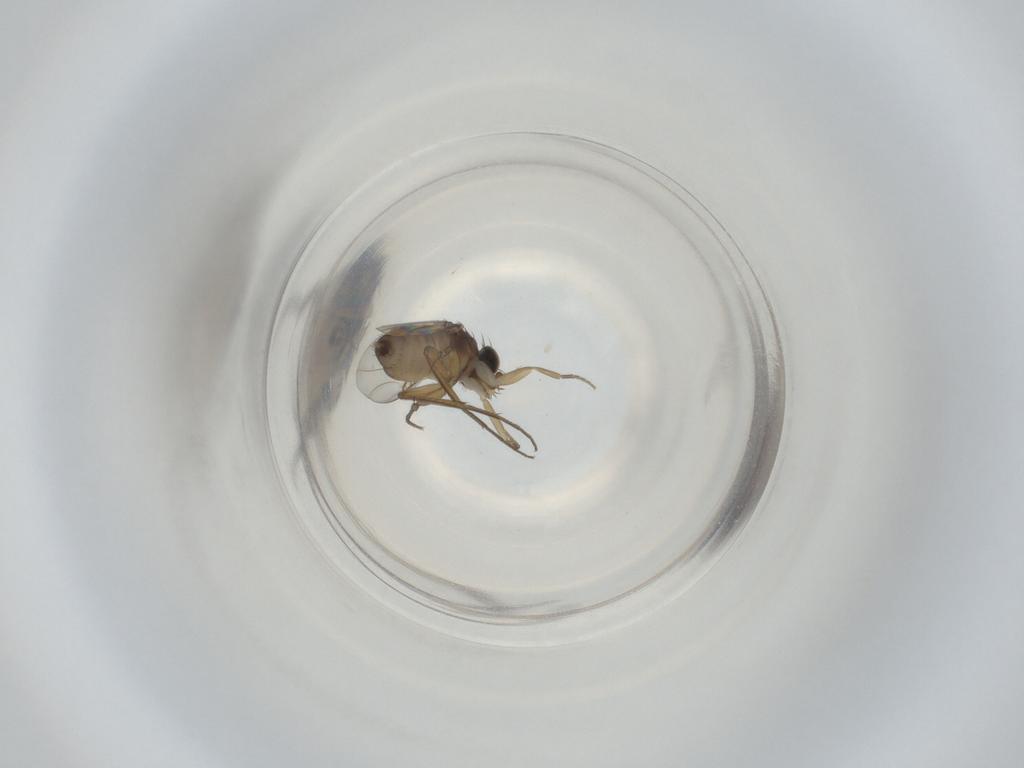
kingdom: Animalia
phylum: Arthropoda
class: Insecta
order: Diptera
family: Phoridae
